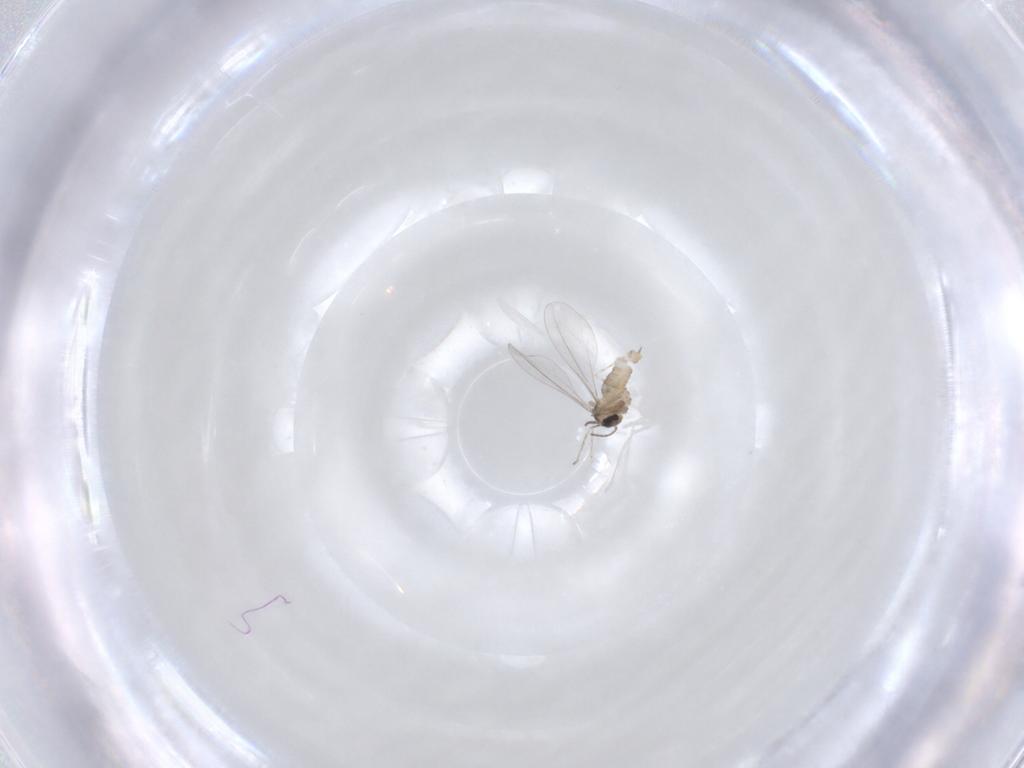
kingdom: Animalia
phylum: Arthropoda
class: Insecta
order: Diptera
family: Cecidomyiidae
